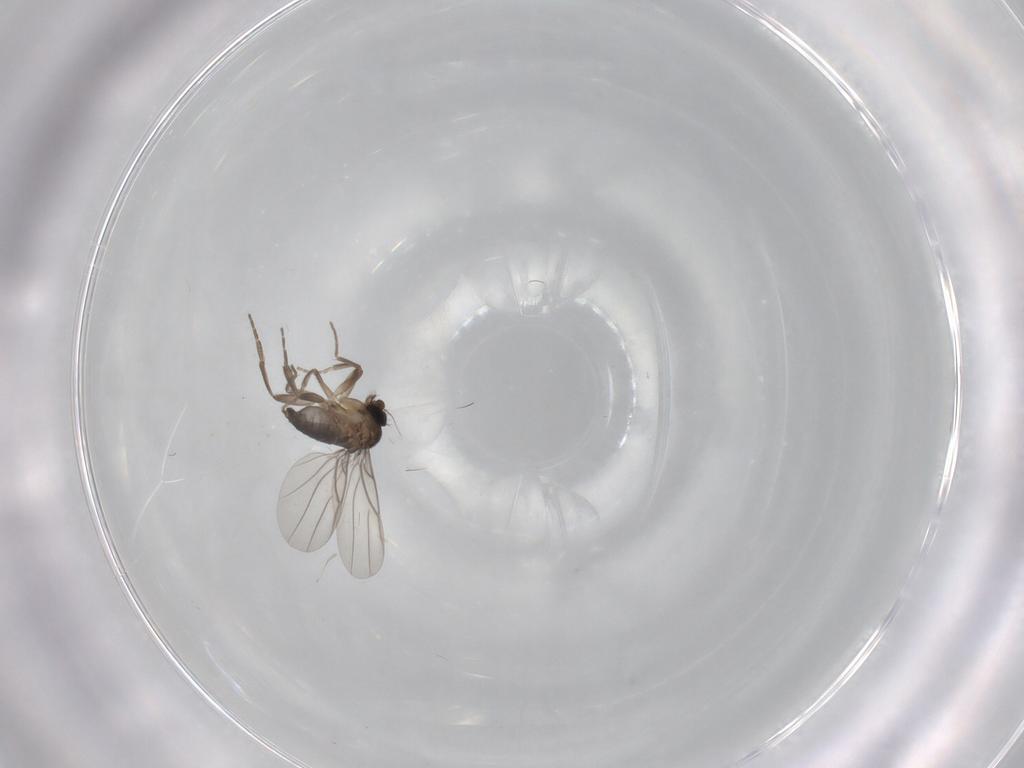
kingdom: Animalia
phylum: Arthropoda
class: Insecta
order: Diptera
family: Phoridae
